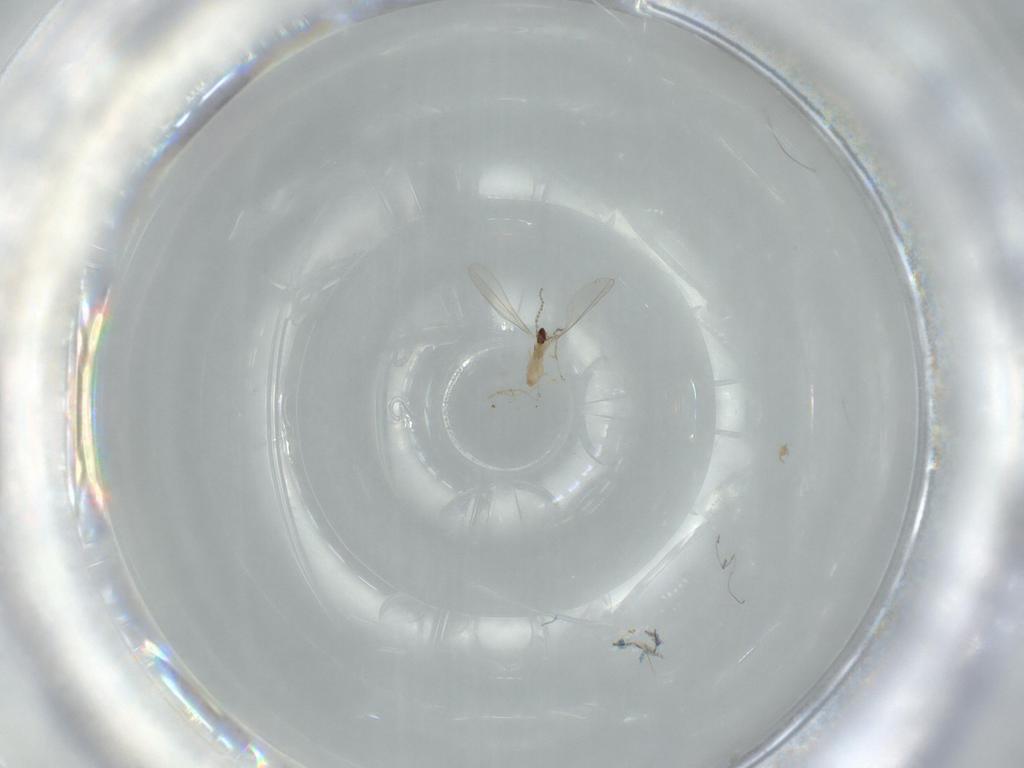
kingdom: Animalia
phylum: Arthropoda
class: Insecta
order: Diptera
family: Cecidomyiidae
